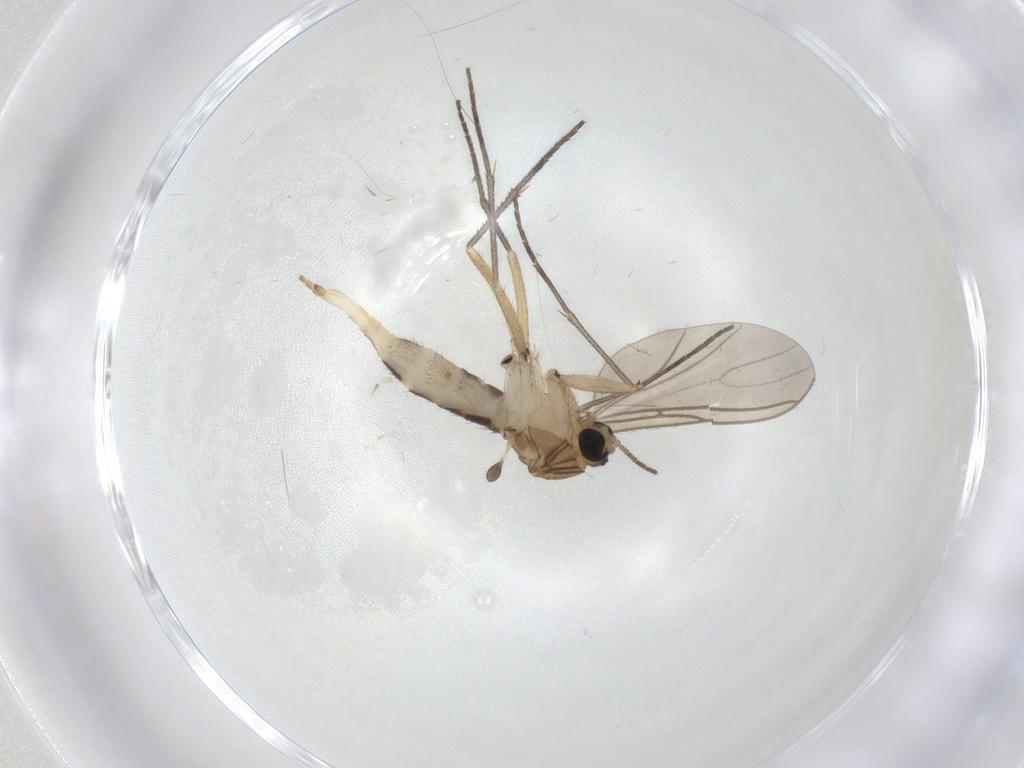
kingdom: Animalia
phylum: Arthropoda
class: Insecta
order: Diptera
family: Sciaridae
